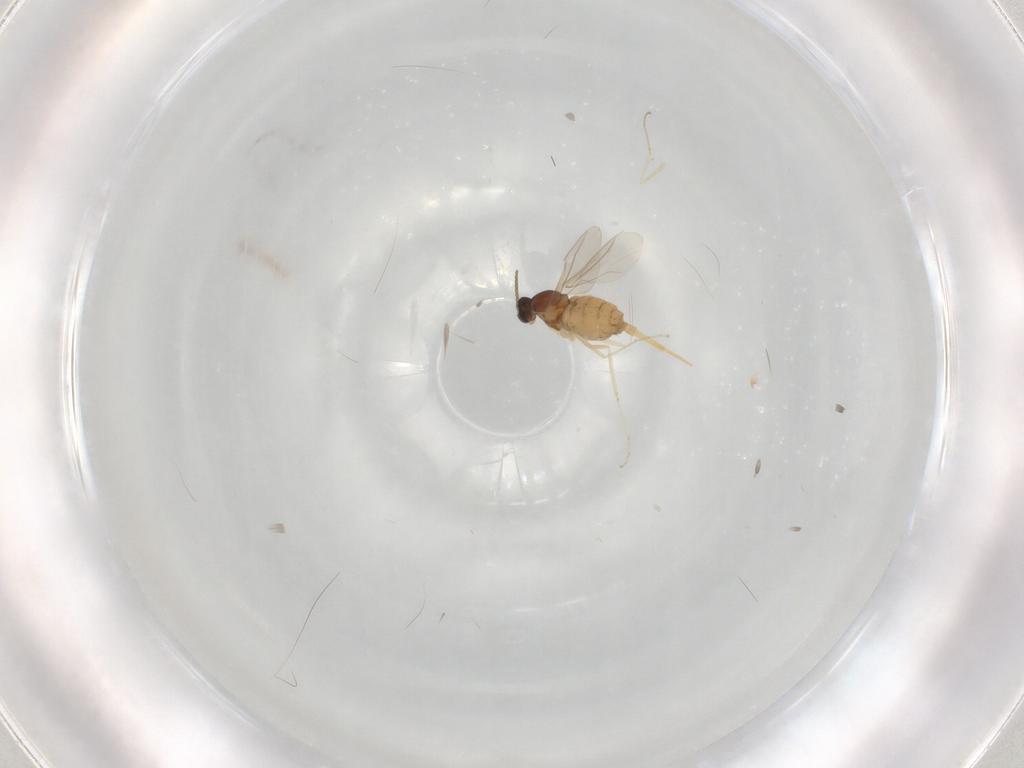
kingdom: Animalia
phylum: Arthropoda
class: Insecta
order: Diptera
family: Cecidomyiidae
